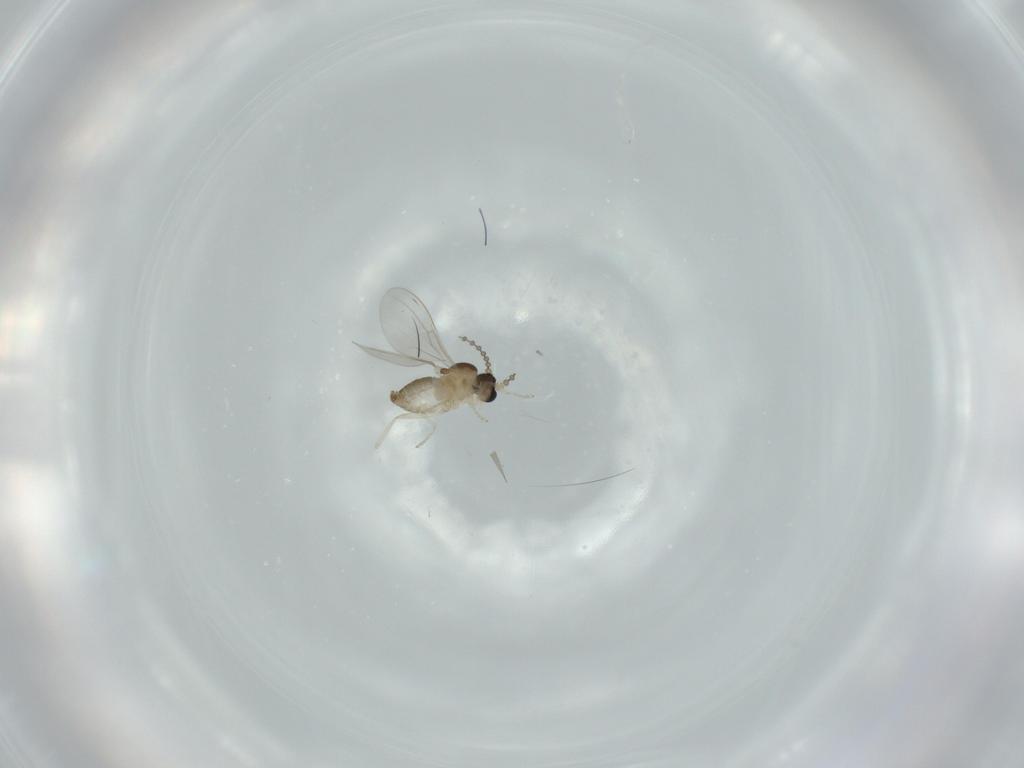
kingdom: Animalia
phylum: Arthropoda
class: Insecta
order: Diptera
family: Cecidomyiidae
